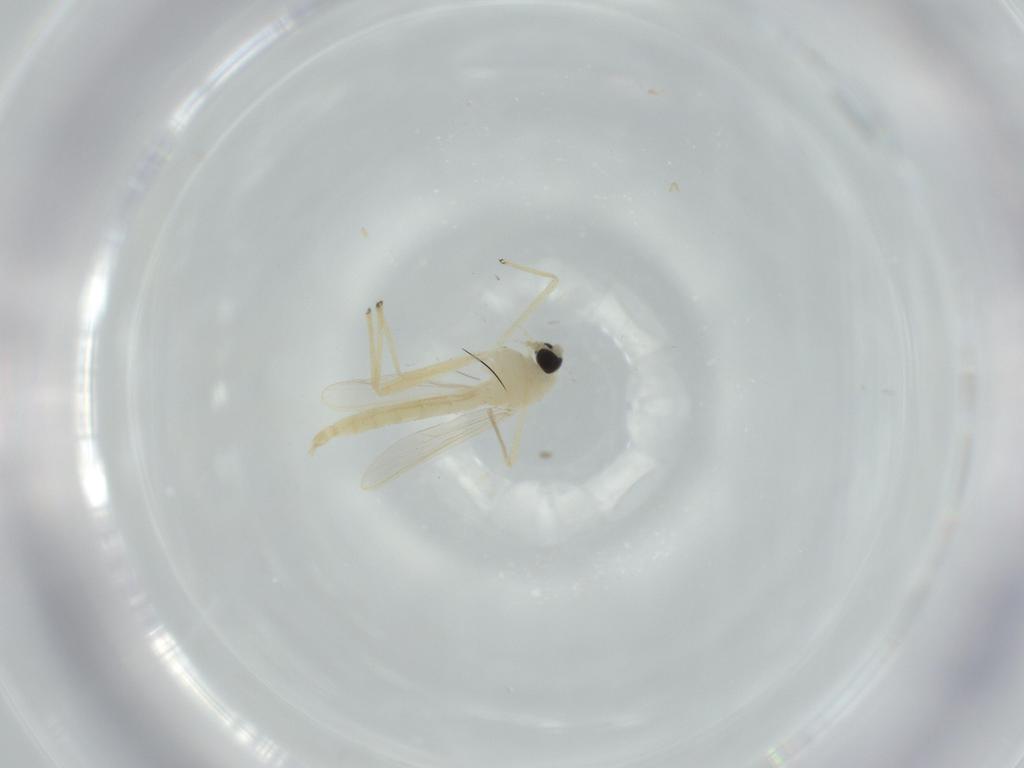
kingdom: Animalia
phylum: Arthropoda
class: Insecta
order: Diptera
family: Chironomidae
